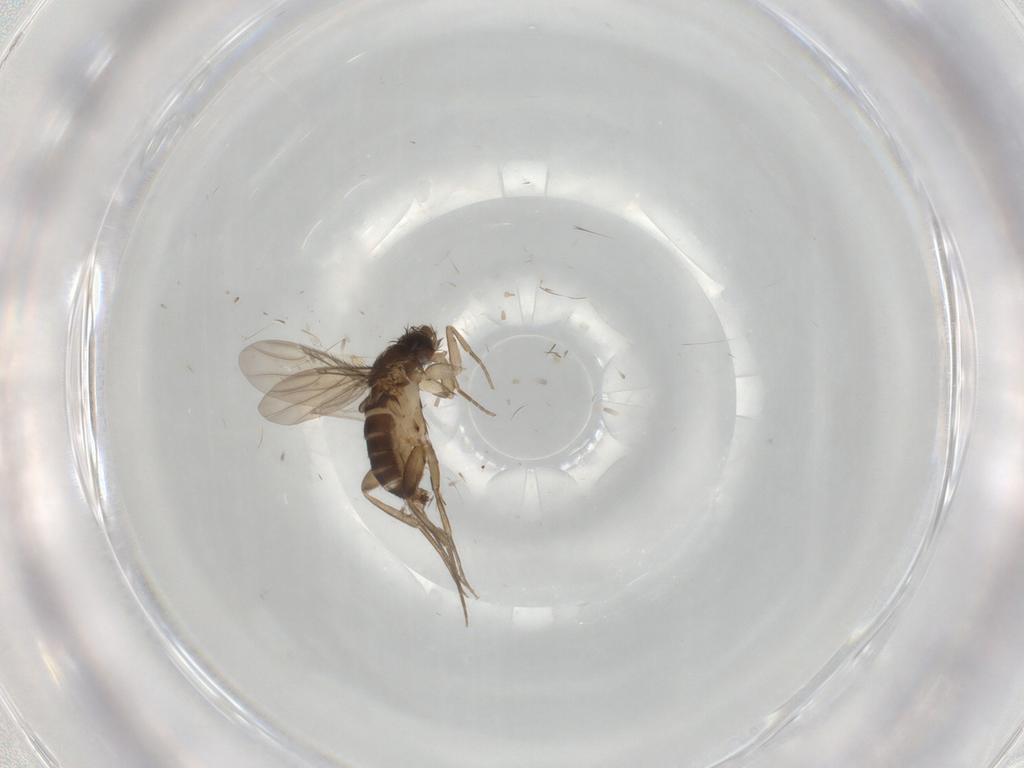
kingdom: Animalia
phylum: Arthropoda
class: Insecta
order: Diptera
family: Phoridae
